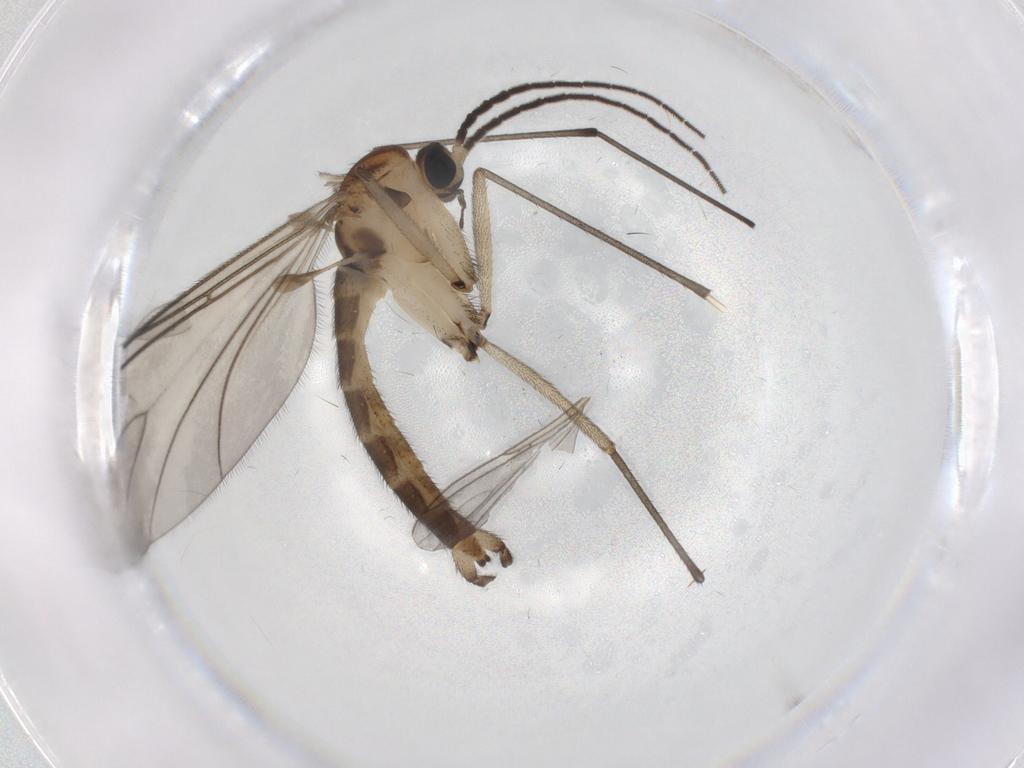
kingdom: Animalia
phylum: Arthropoda
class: Insecta
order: Diptera
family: Sciaridae
